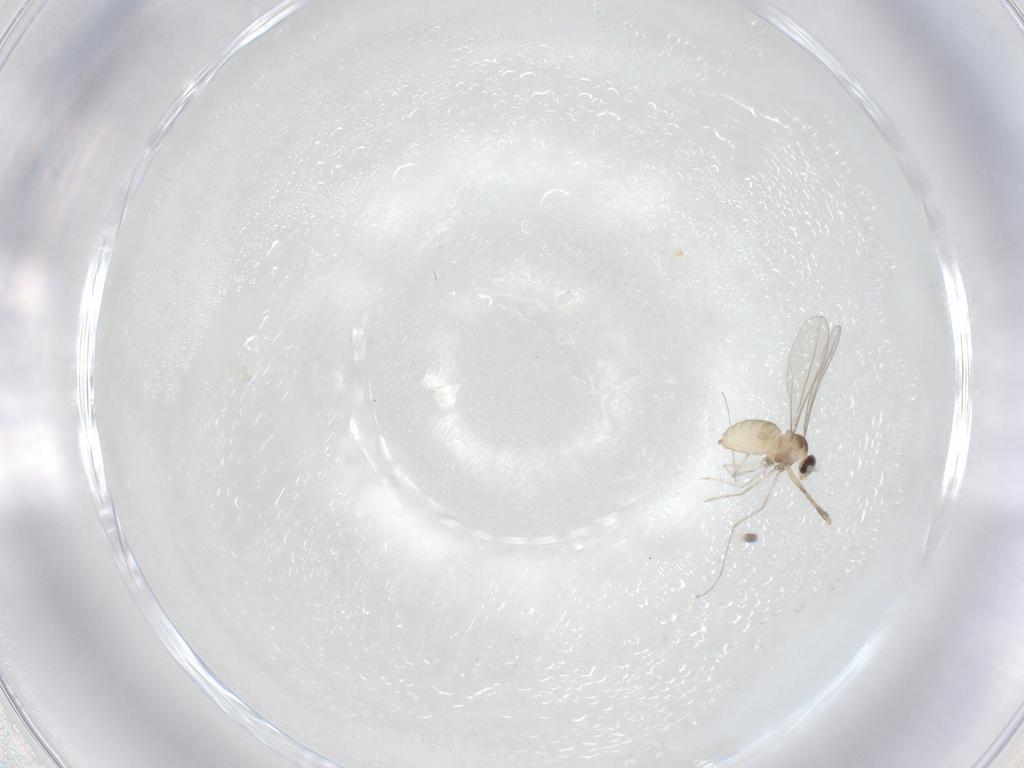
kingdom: Animalia
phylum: Arthropoda
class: Insecta
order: Diptera
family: Cecidomyiidae
